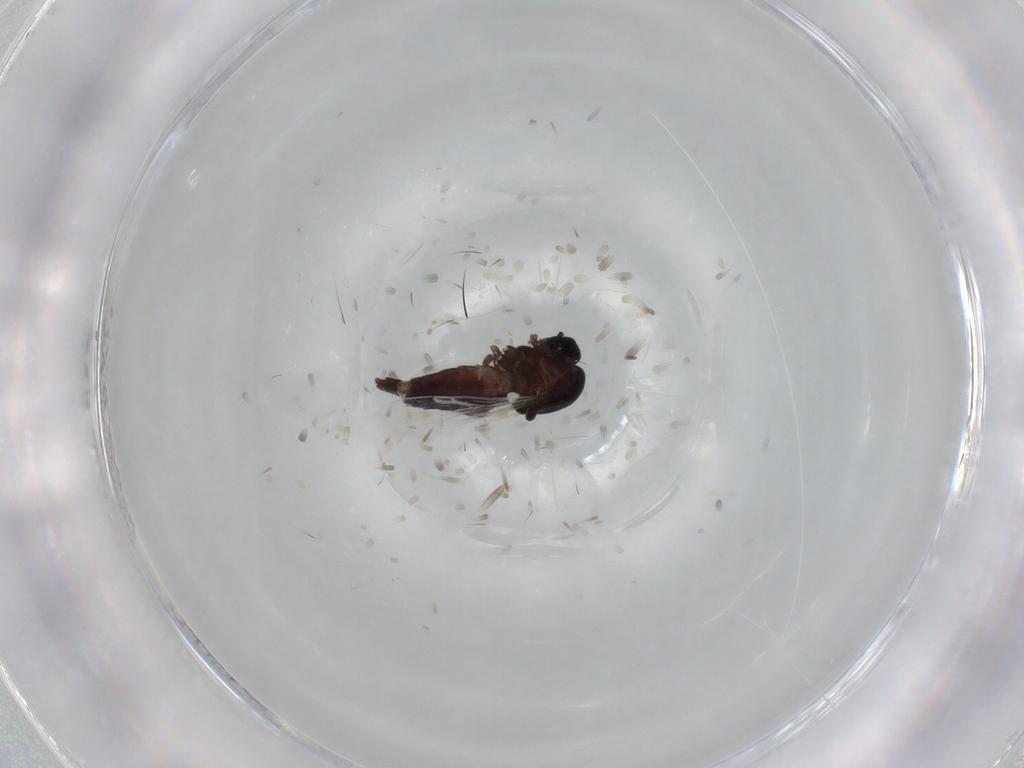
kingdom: Animalia
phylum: Arthropoda
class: Insecta
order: Diptera
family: Ceratopogonidae
